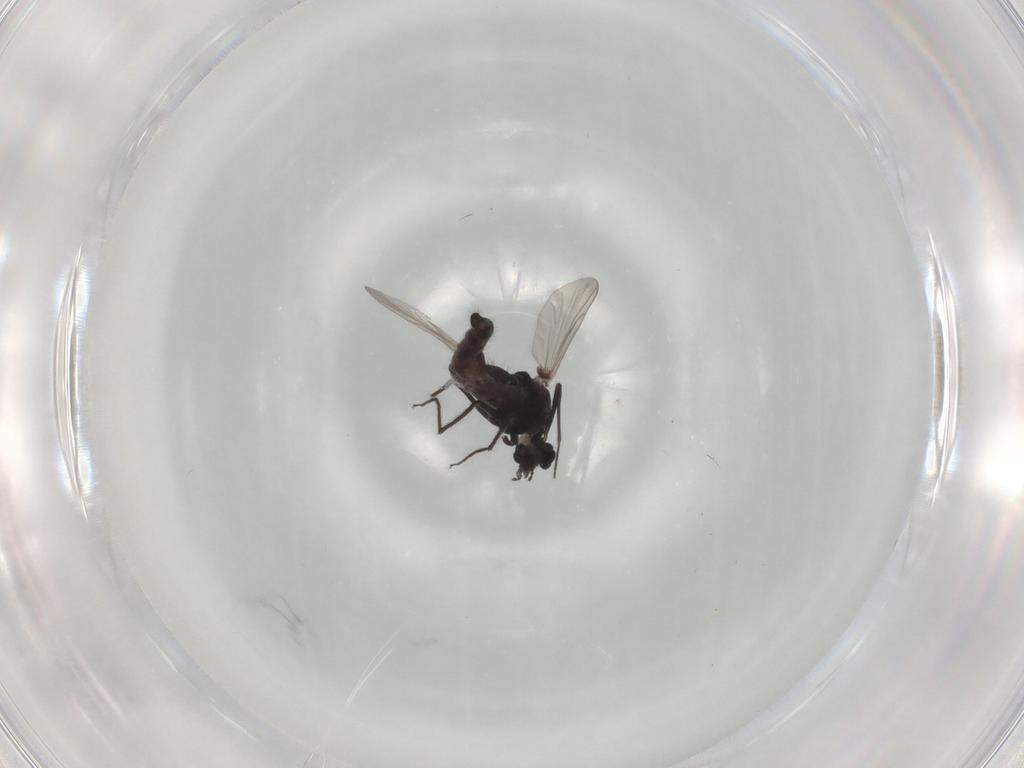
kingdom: Animalia
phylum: Arthropoda
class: Insecta
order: Diptera
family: Chironomidae
